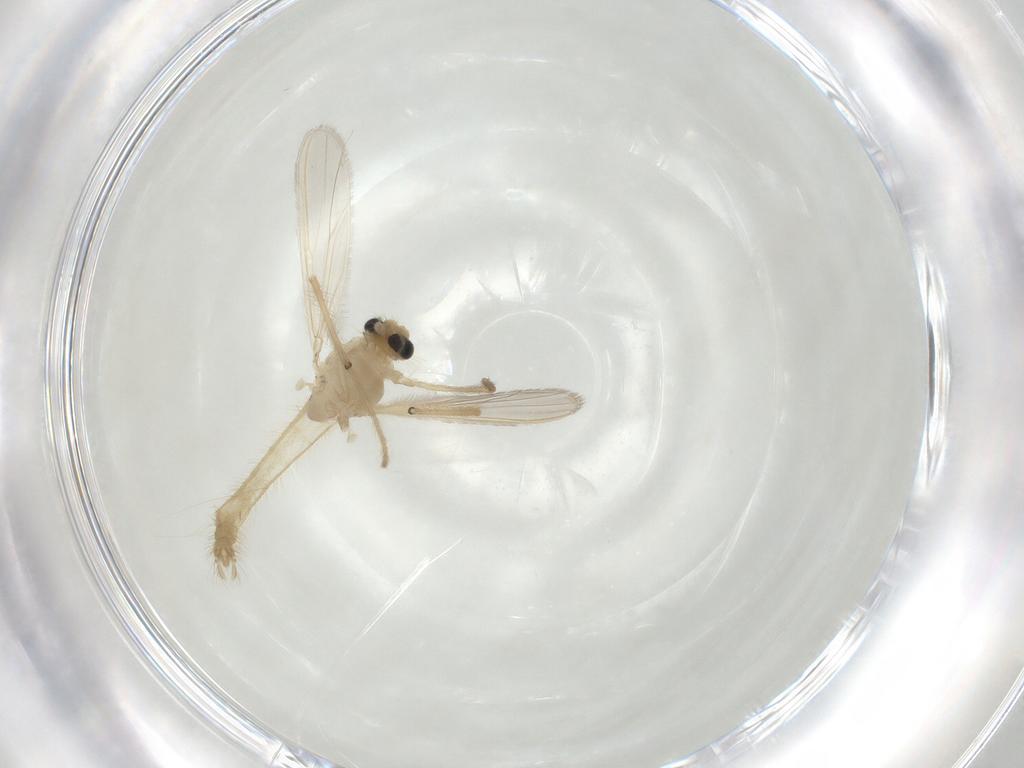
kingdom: Animalia
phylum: Arthropoda
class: Insecta
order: Diptera
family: Chironomidae
